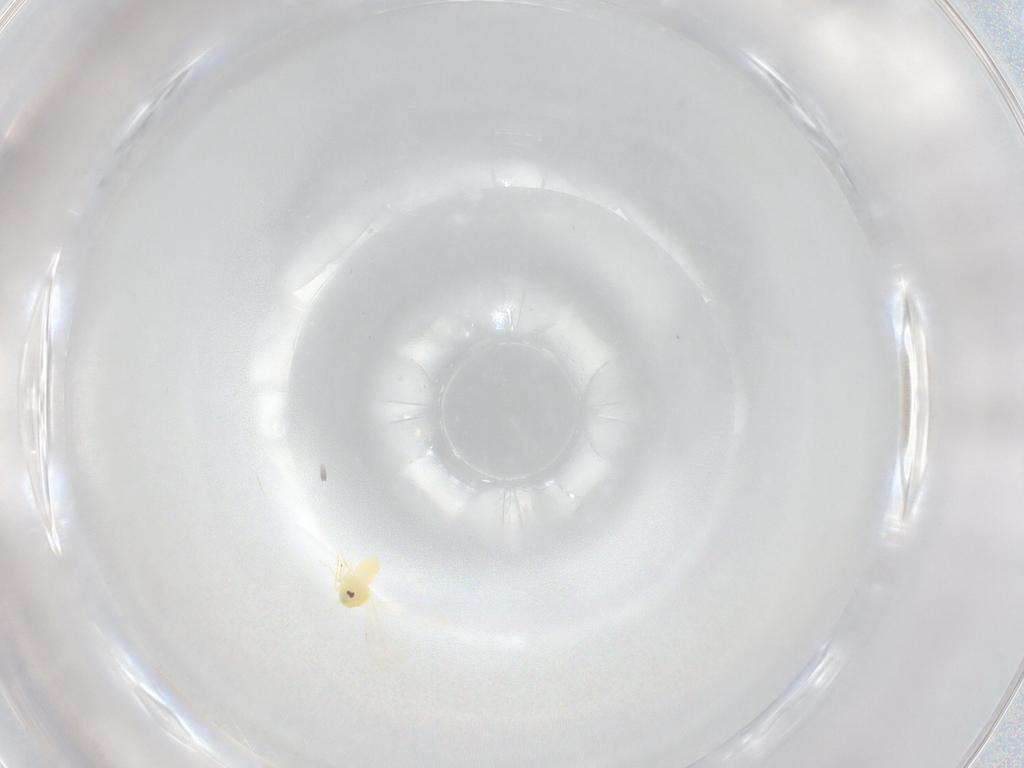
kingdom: Animalia
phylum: Arthropoda
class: Insecta
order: Hemiptera
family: Aleyrodidae
